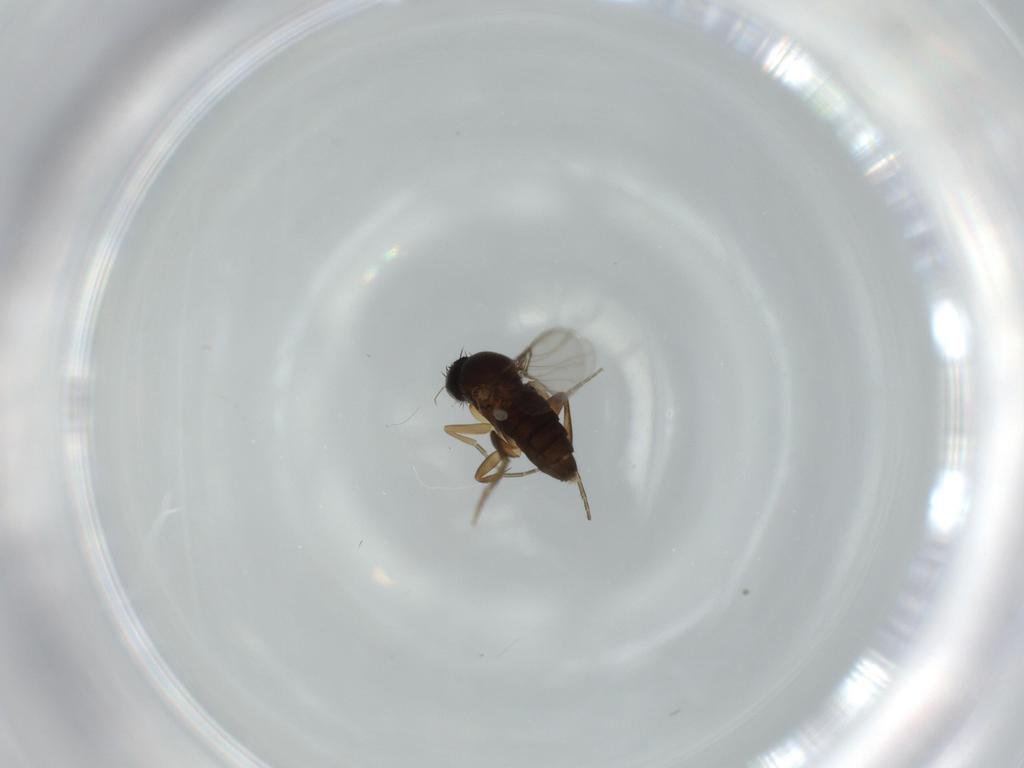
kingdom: Animalia
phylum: Arthropoda
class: Insecta
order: Diptera
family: Phoridae
